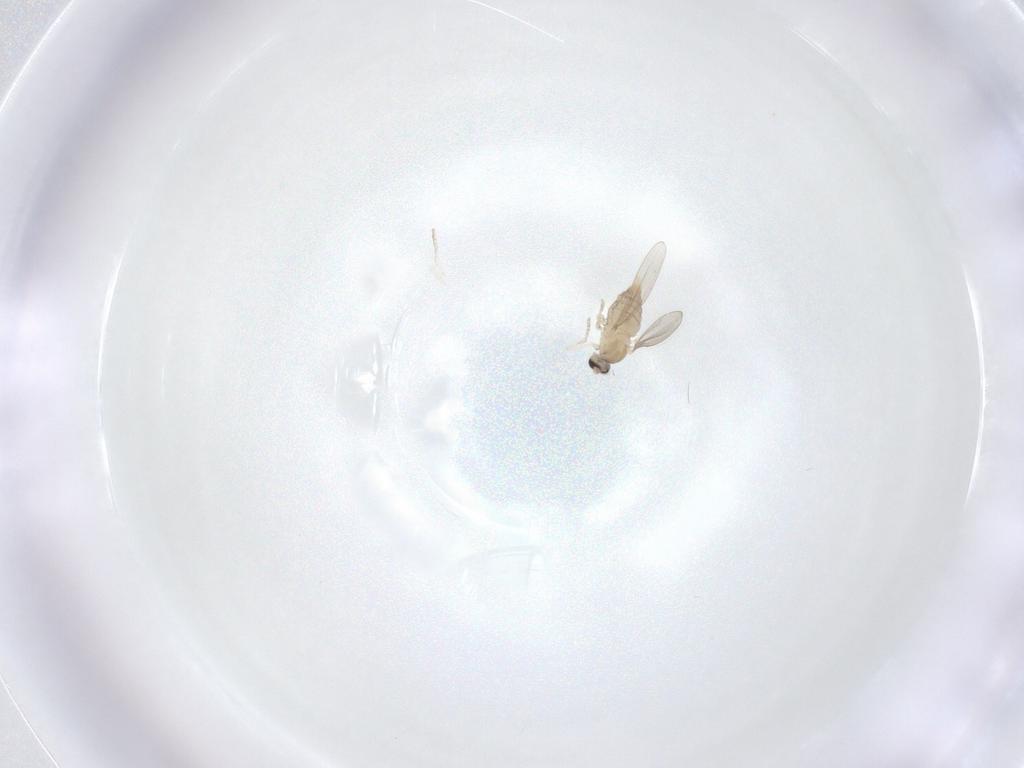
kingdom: Animalia
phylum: Arthropoda
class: Insecta
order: Diptera
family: Cecidomyiidae
